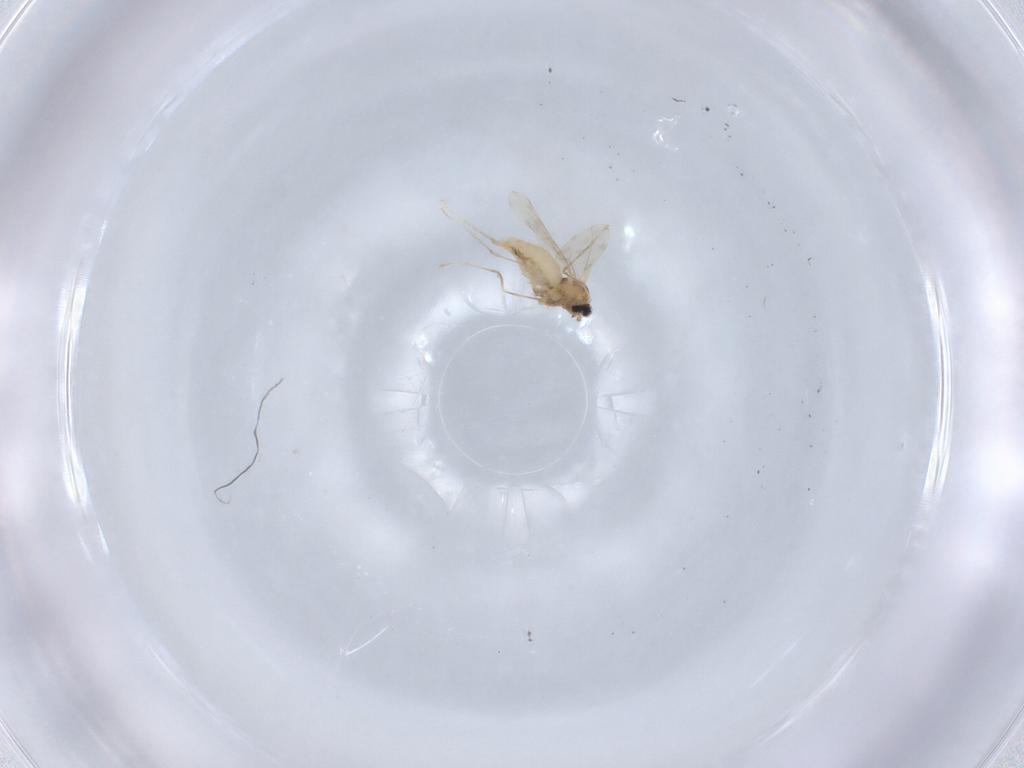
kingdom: Animalia
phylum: Arthropoda
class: Insecta
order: Diptera
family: Cecidomyiidae
